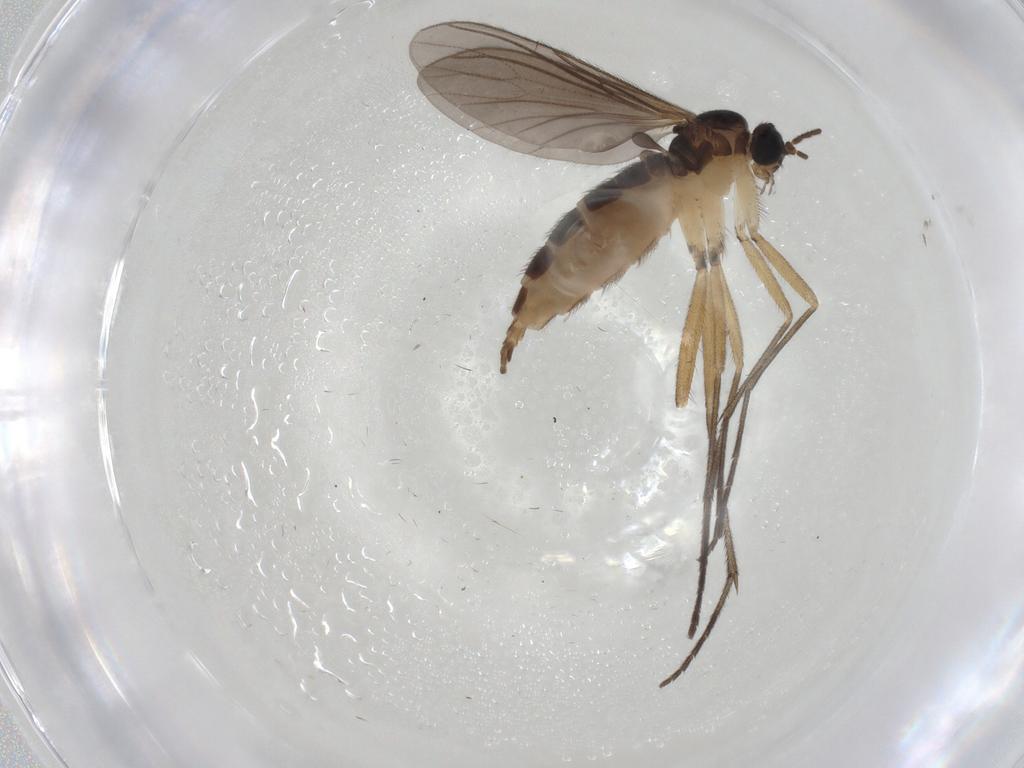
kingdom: Animalia
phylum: Arthropoda
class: Insecta
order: Diptera
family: Sciaridae
